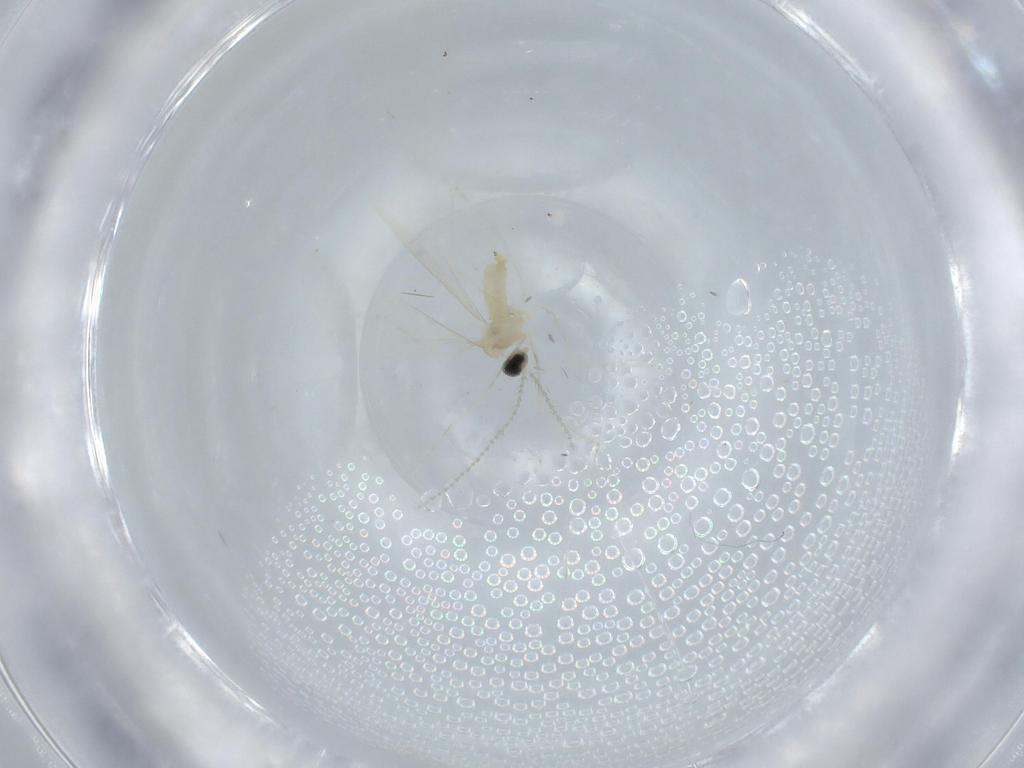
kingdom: Animalia
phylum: Arthropoda
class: Insecta
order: Diptera
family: Cecidomyiidae
